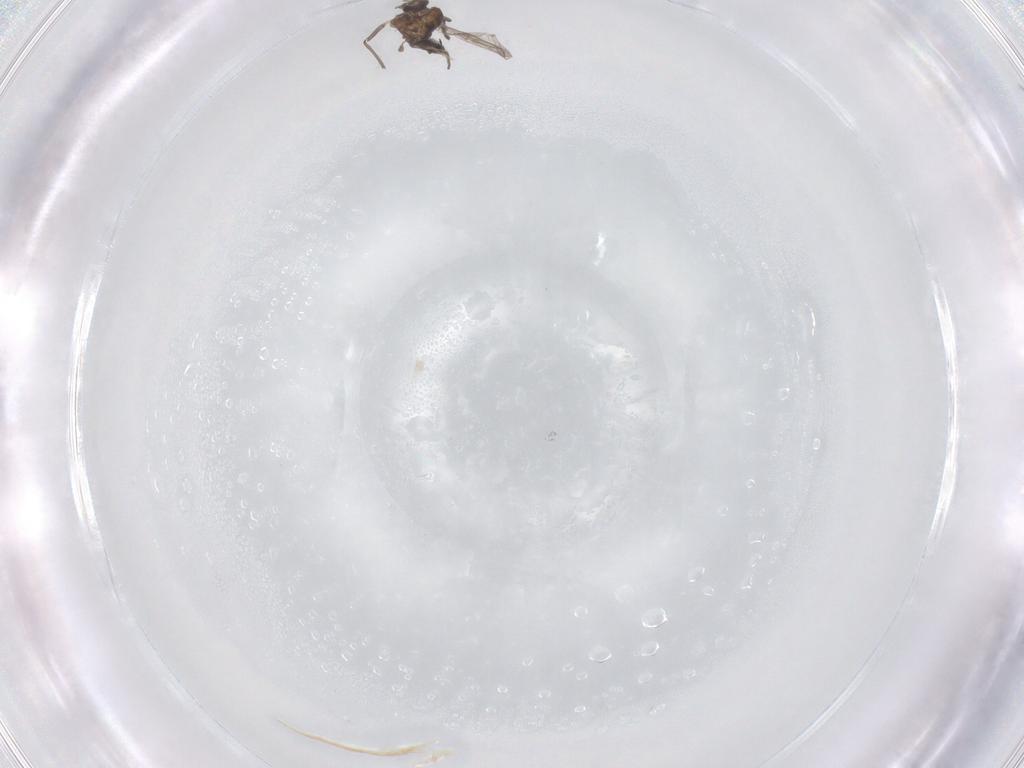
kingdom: Animalia
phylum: Arthropoda
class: Insecta
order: Diptera
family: Chironomidae
